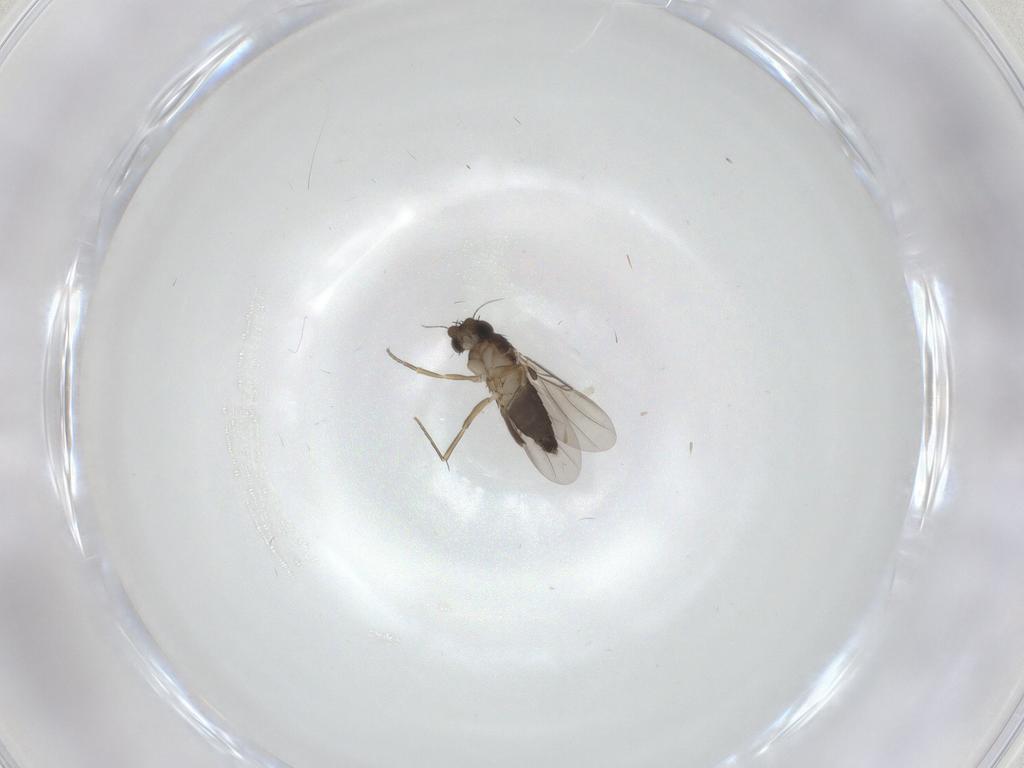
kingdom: Animalia
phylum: Arthropoda
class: Insecta
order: Diptera
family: Phoridae
